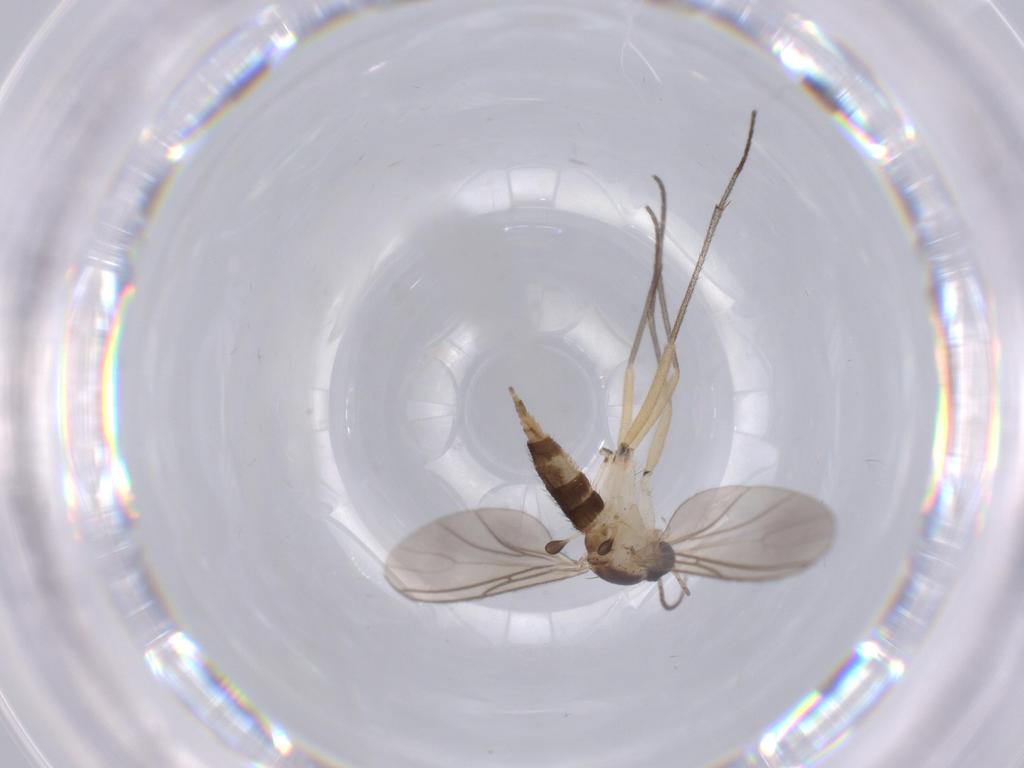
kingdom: Animalia
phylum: Arthropoda
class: Insecta
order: Diptera
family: Sciaridae
